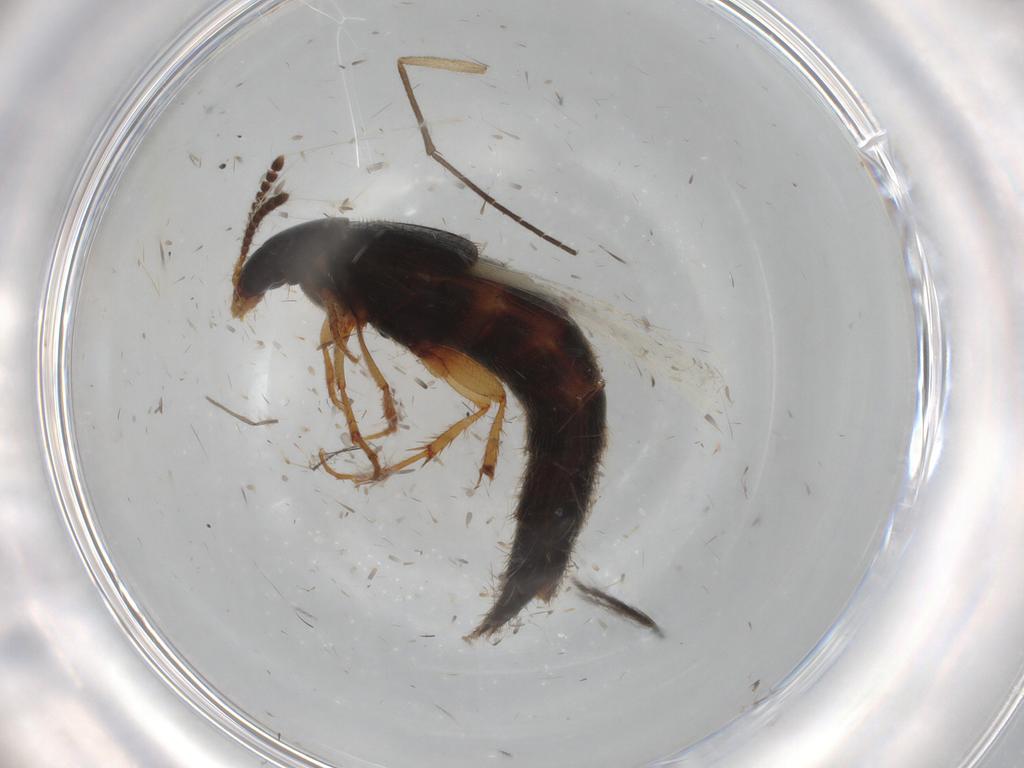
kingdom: Animalia
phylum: Arthropoda
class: Insecta
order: Coleoptera
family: Staphylinidae
